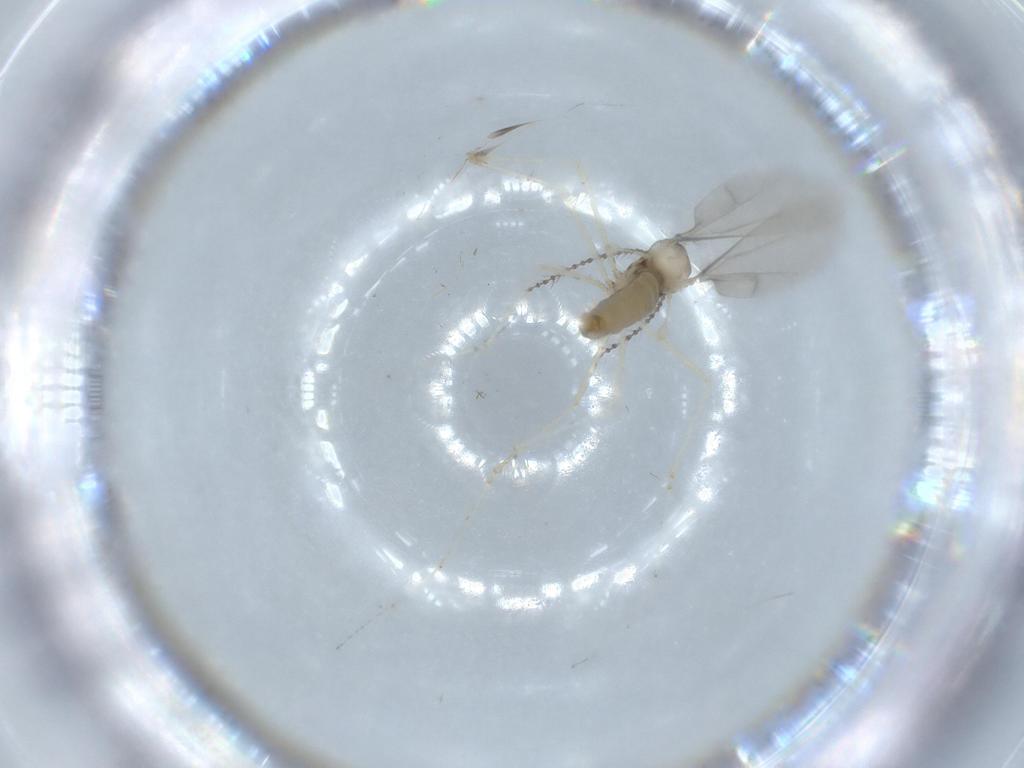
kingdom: Animalia
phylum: Arthropoda
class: Insecta
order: Diptera
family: Cecidomyiidae
